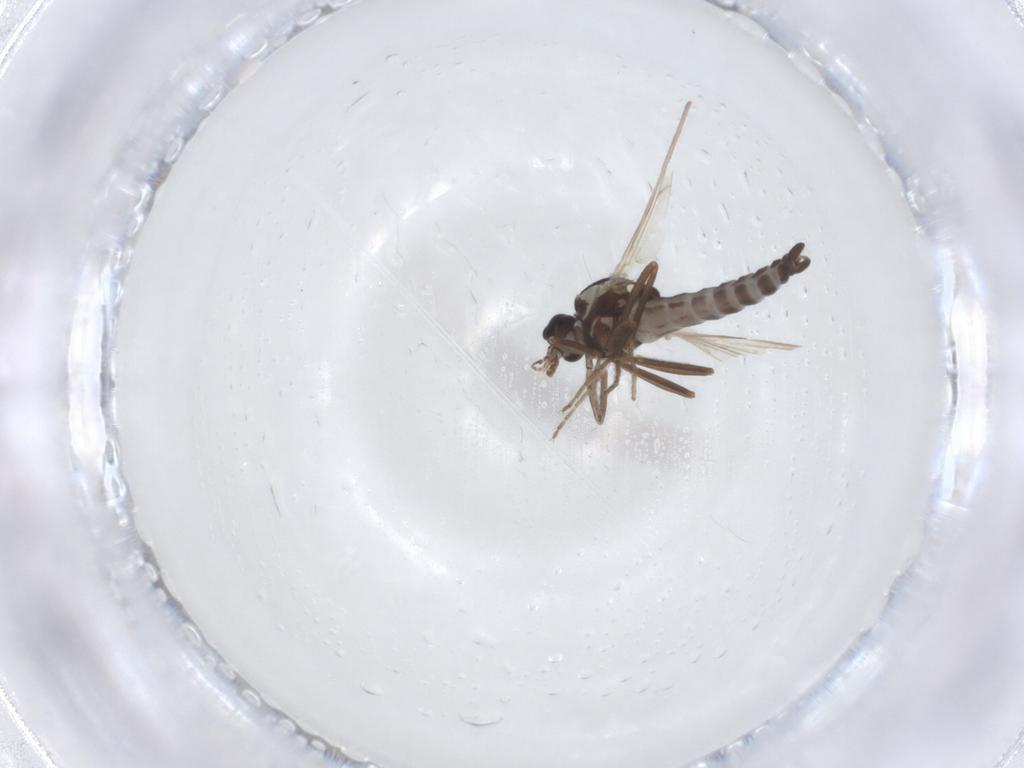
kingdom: Animalia
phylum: Arthropoda
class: Insecta
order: Diptera
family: Ceratopogonidae
